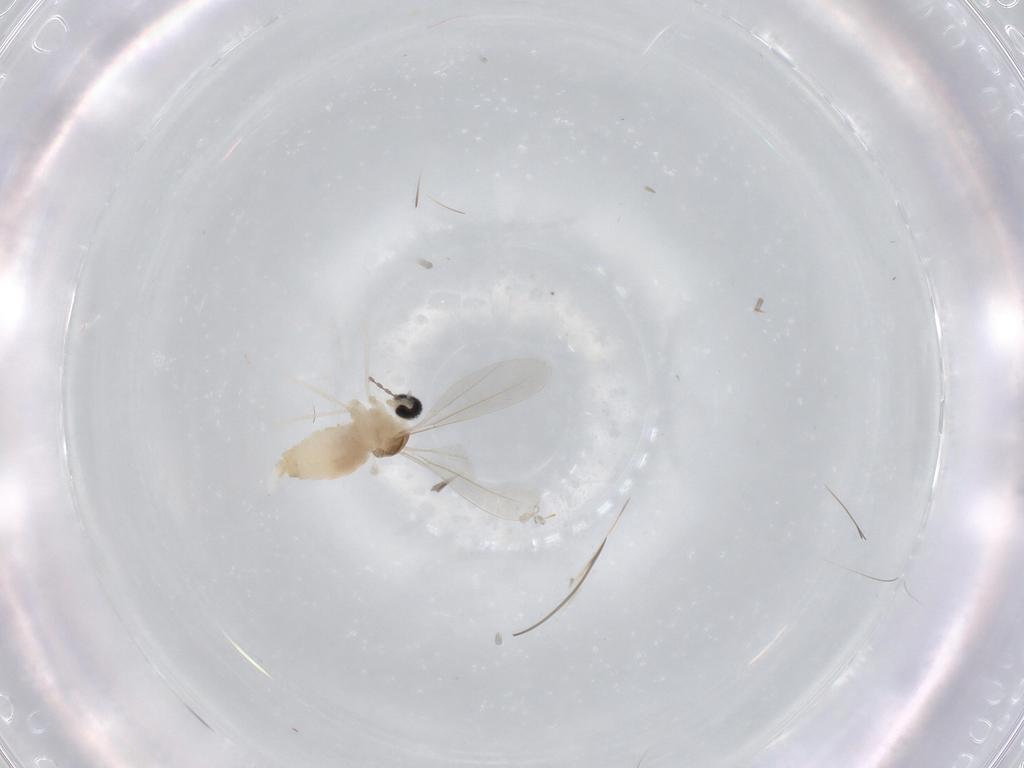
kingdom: Animalia
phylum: Arthropoda
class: Insecta
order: Diptera
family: Cecidomyiidae
